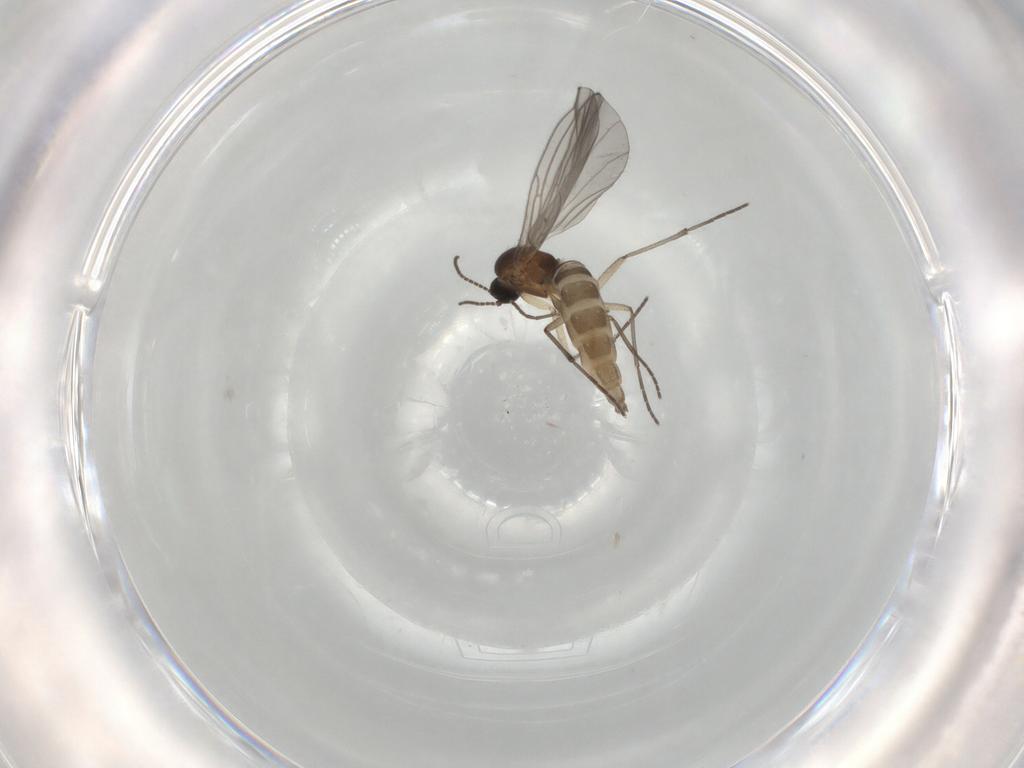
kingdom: Animalia
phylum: Arthropoda
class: Insecta
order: Diptera
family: Sciaridae
